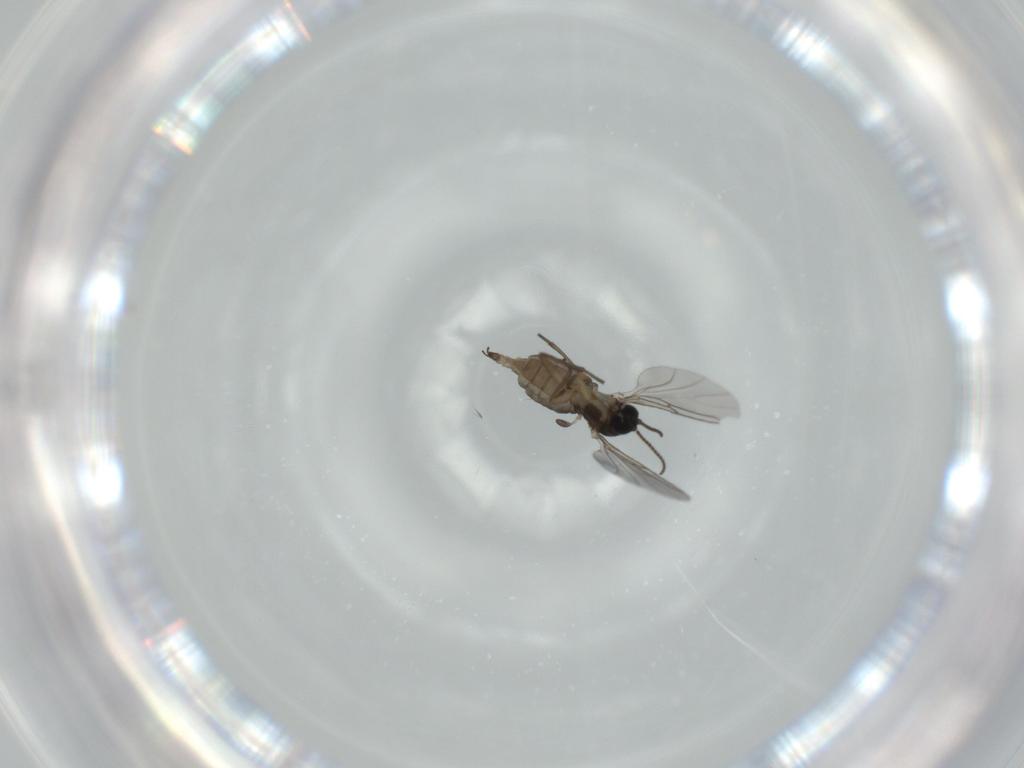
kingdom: Animalia
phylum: Arthropoda
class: Insecta
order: Diptera
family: Sciaridae
